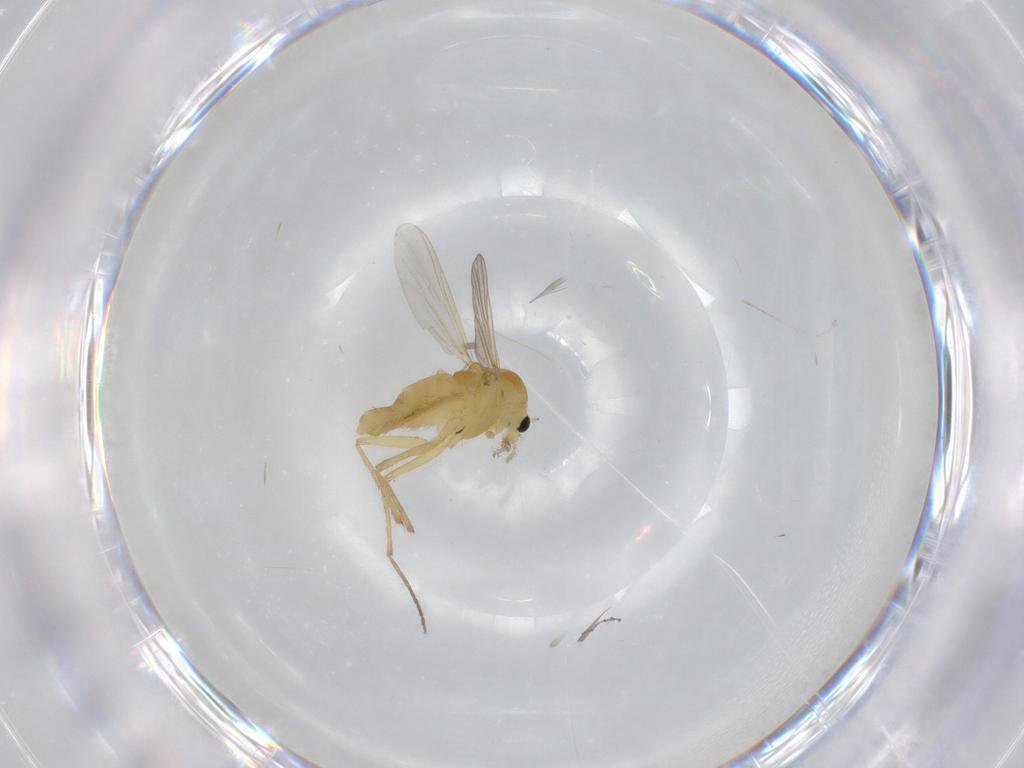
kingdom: Animalia
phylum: Arthropoda
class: Insecta
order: Diptera
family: Chironomidae
